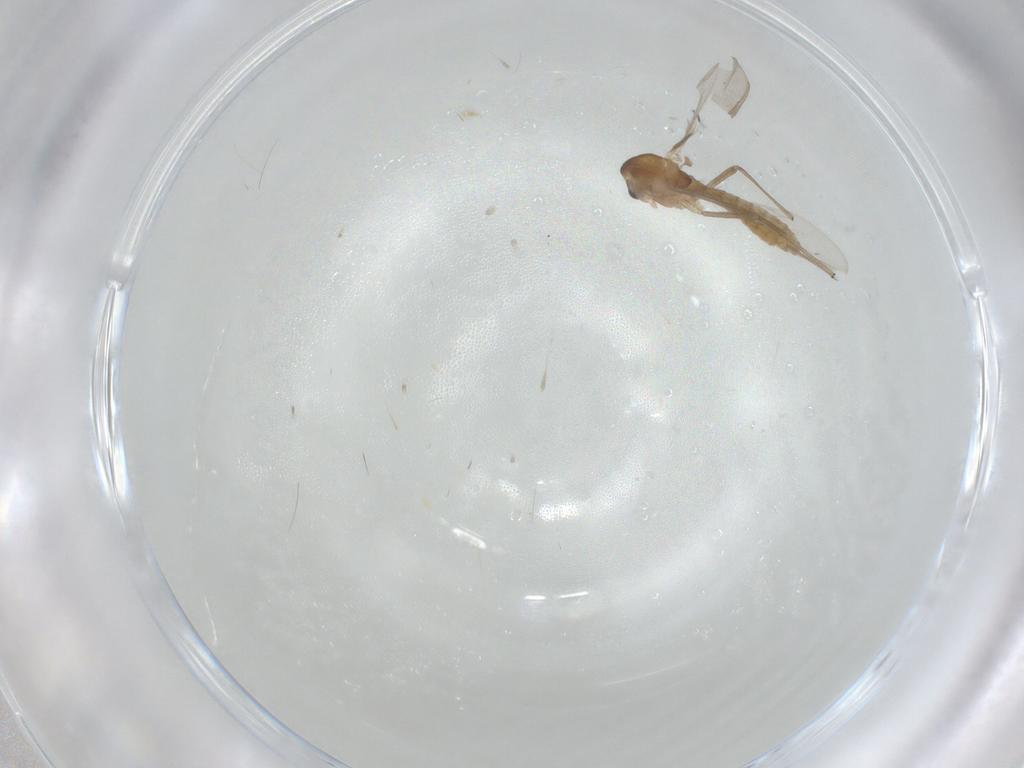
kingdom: Animalia
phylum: Arthropoda
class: Insecta
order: Diptera
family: Chironomidae
